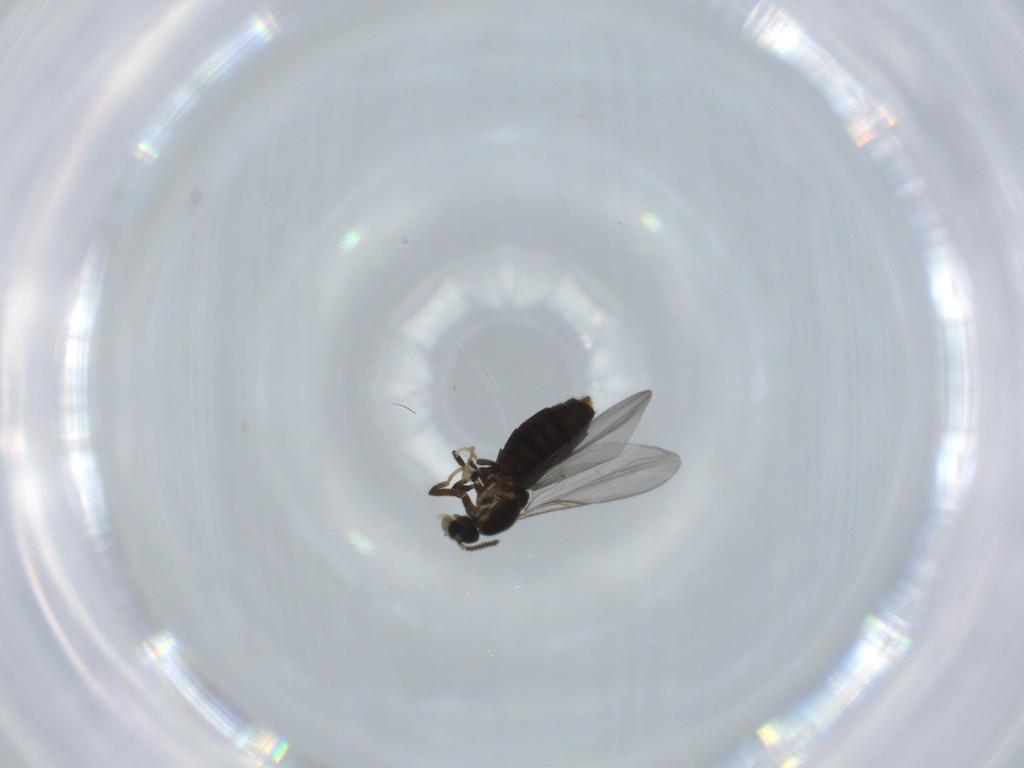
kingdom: Animalia
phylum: Arthropoda
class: Insecta
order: Diptera
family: Scatopsidae
